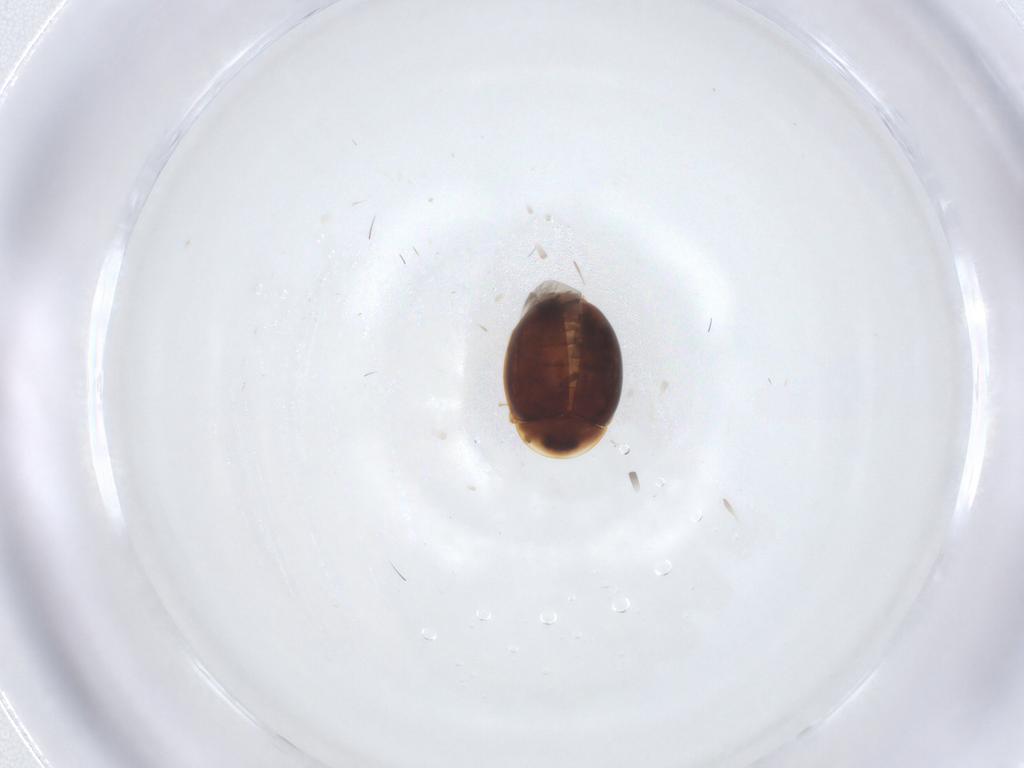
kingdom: Animalia
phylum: Arthropoda
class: Insecta
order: Coleoptera
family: Corylophidae
